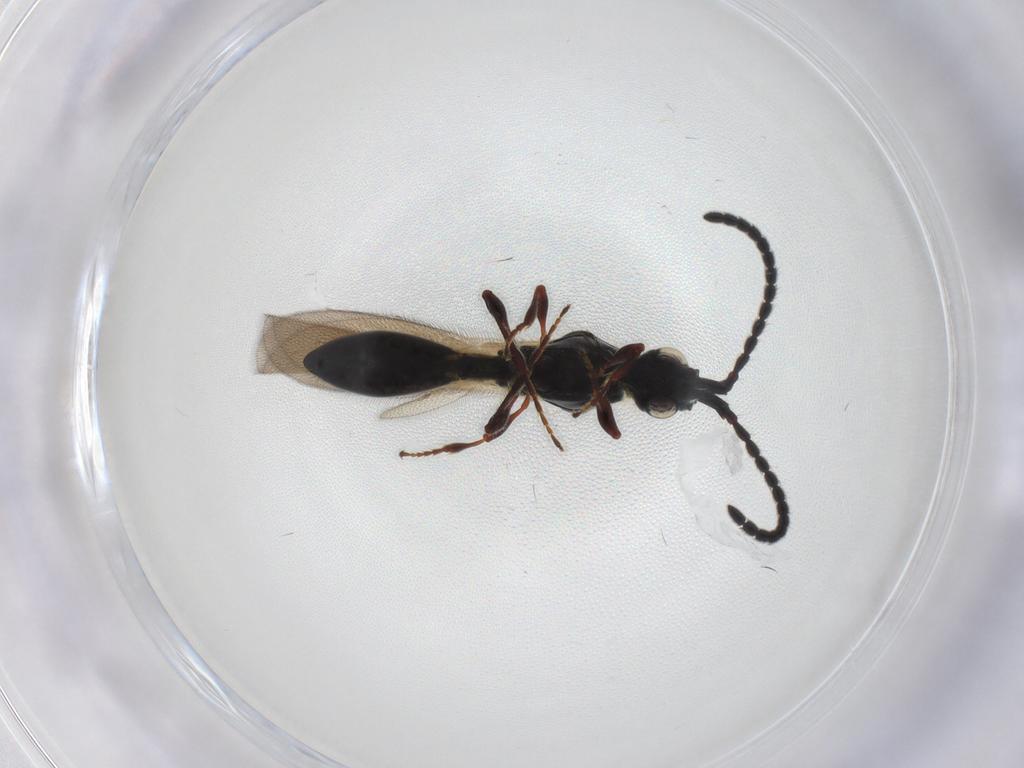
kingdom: Animalia
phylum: Arthropoda
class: Insecta
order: Hymenoptera
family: Diapriidae
